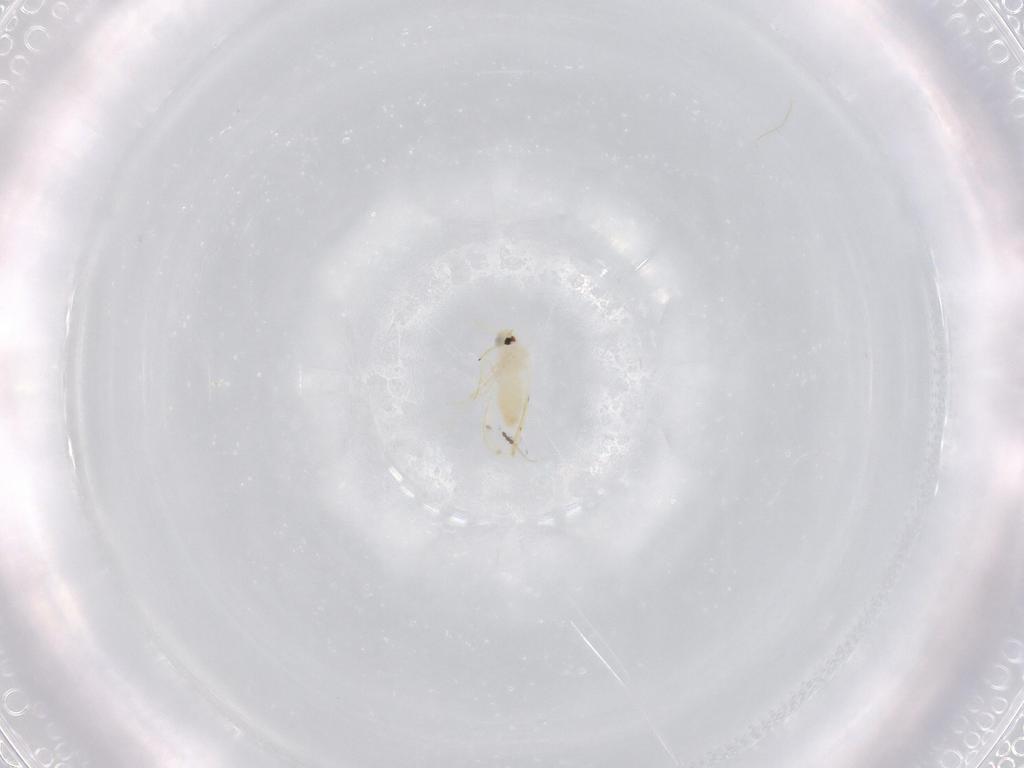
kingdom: Animalia
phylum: Arthropoda
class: Insecta
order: Hemiptera
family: Aleyrodidae
